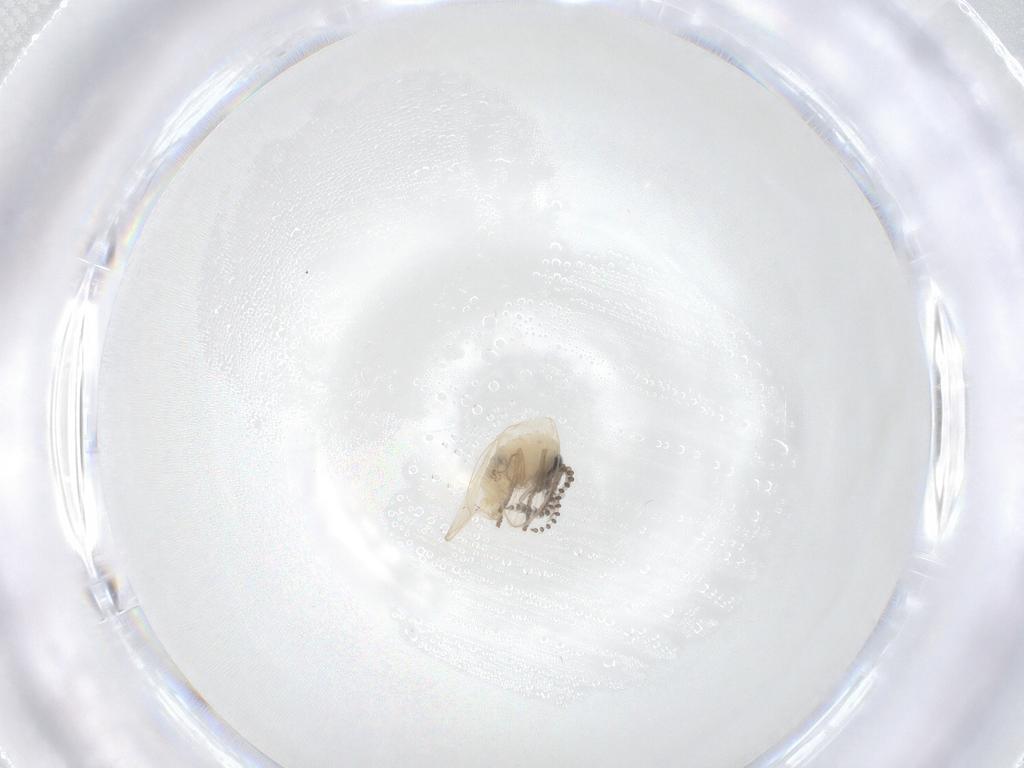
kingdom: Animalia
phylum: Arthropoda
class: Insecta
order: Diptera
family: Psychodidae
